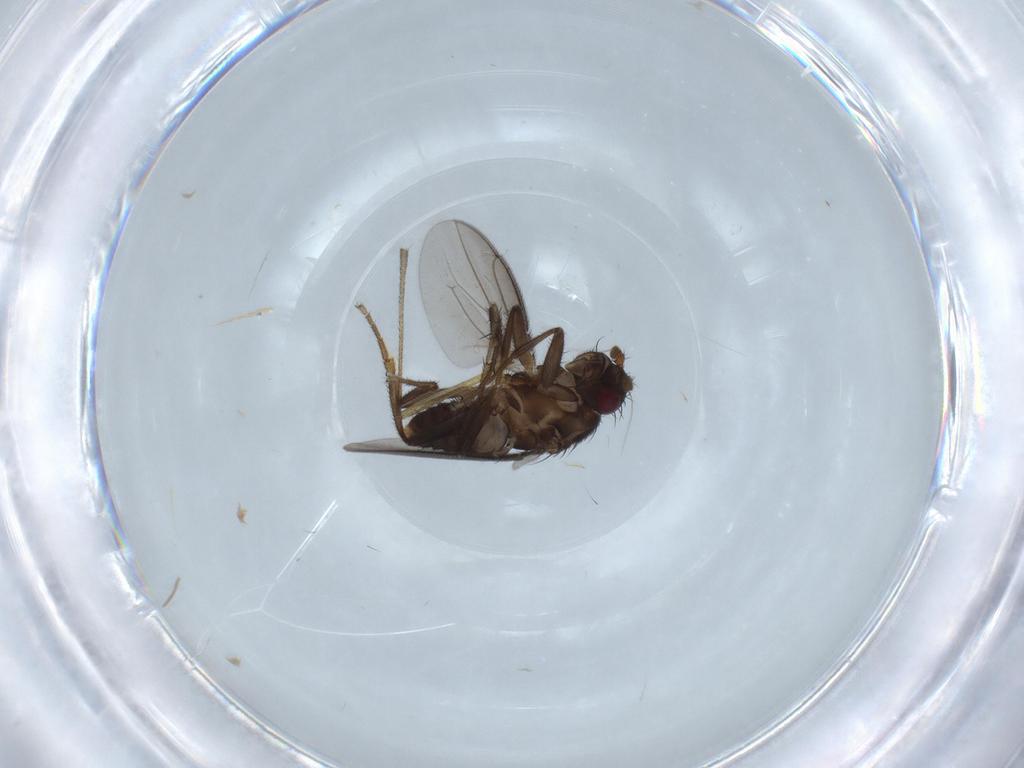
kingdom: Animalia
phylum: Arthropoda
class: Insecta
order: Diptera
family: Sphaeroceridae
